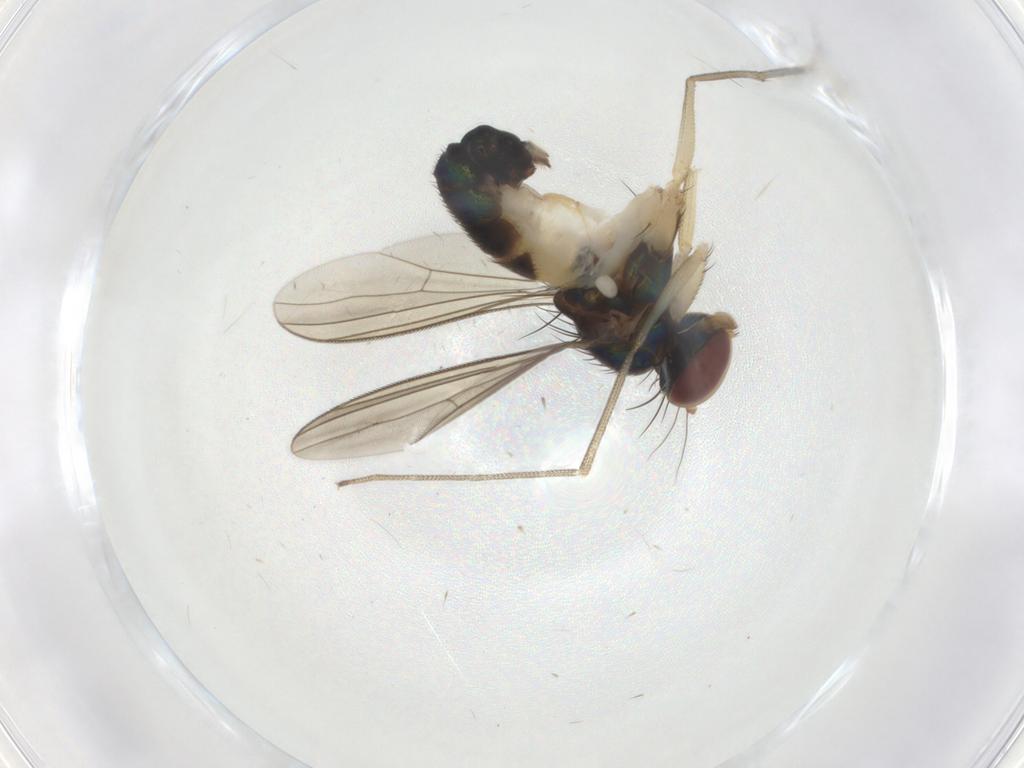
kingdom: Animalia
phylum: Arthropoda
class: Insecta
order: Diptera
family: Dolichopodidae
